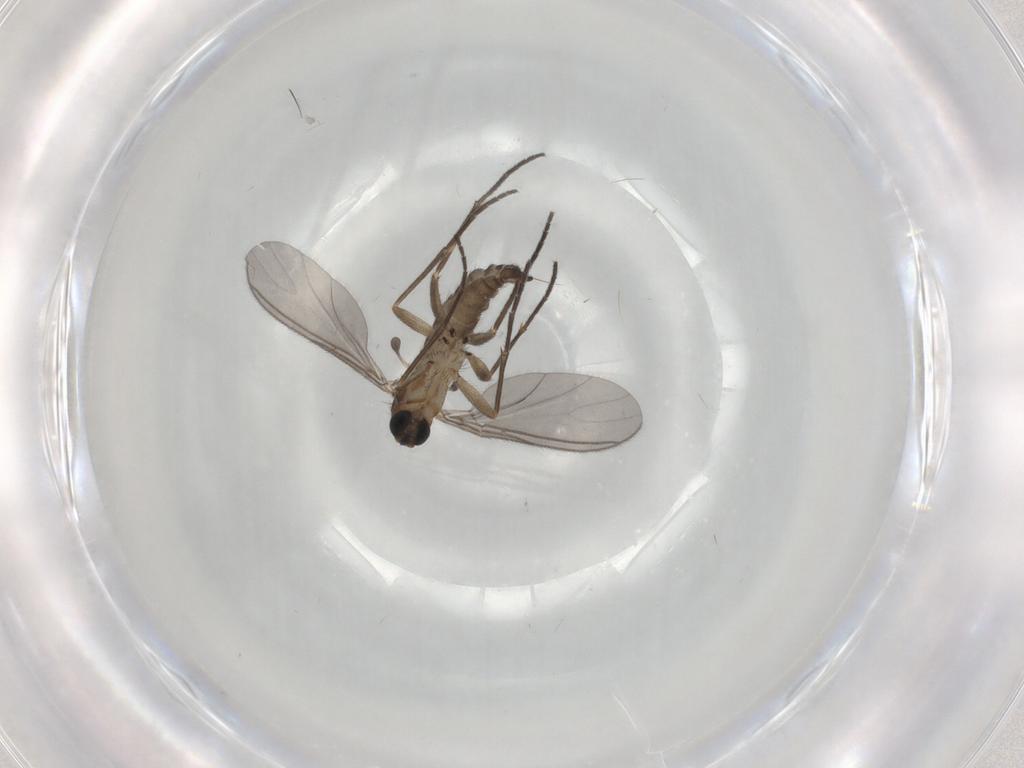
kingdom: Animalia
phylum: Arthropoda
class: Insecta
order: Diptera
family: Sciaridae
